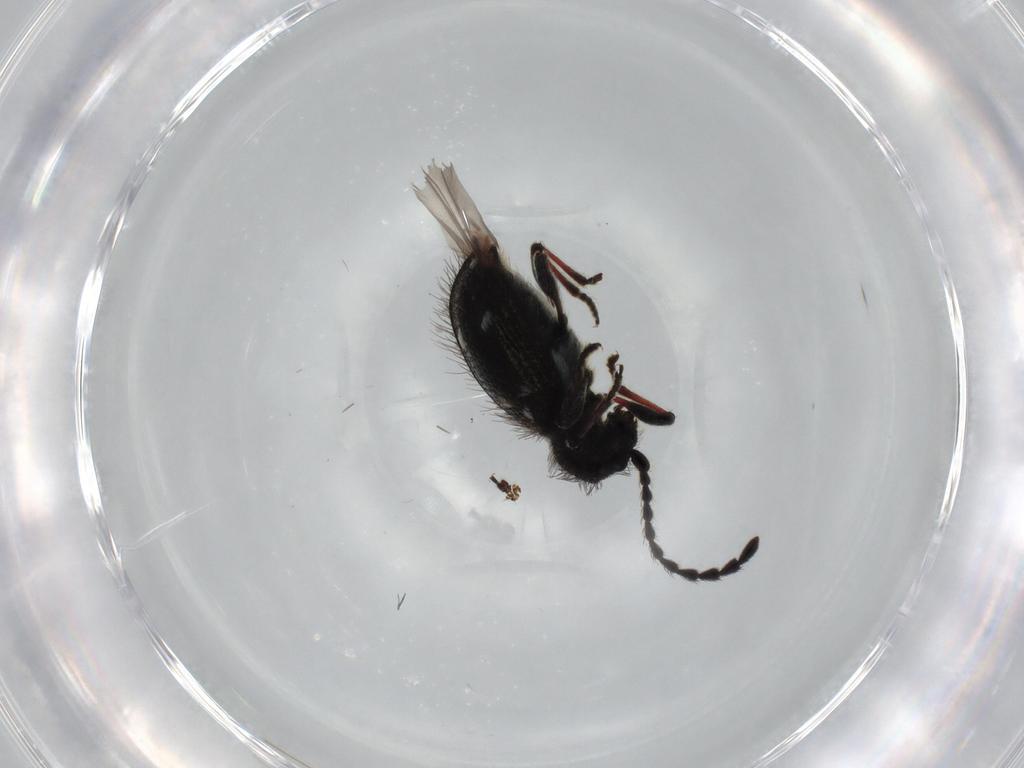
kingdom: Animalia
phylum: Arthropoda
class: Insecta
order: Coleoptera
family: Ptinidae
